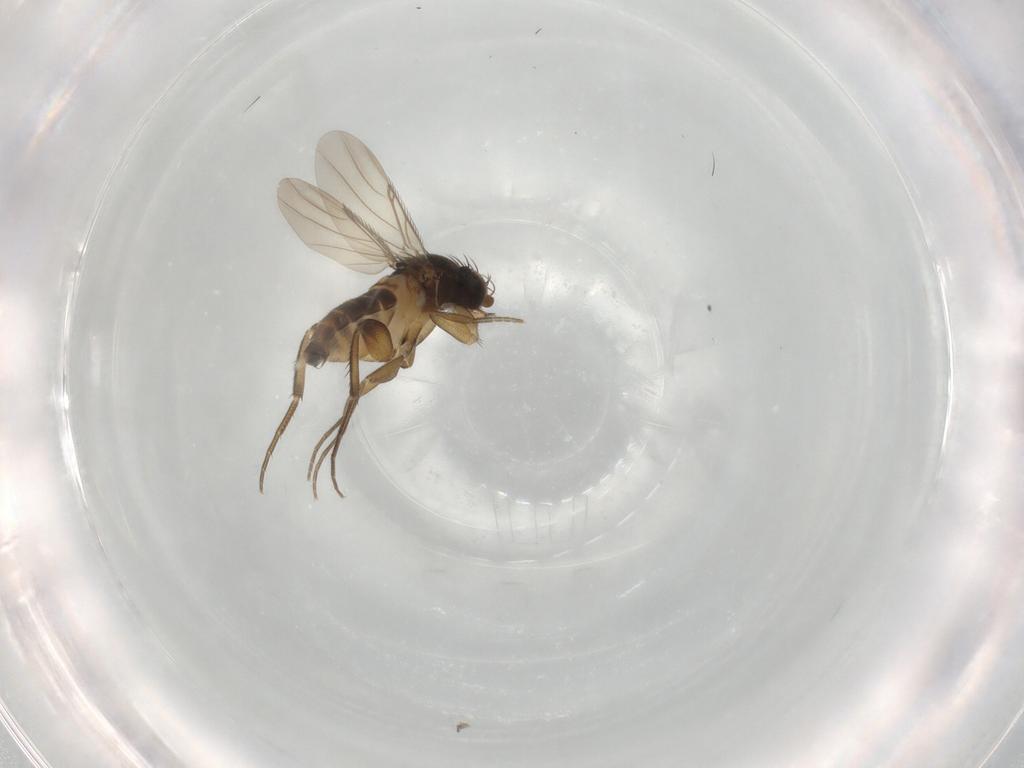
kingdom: Animalia
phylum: Arthropoda
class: Insecta
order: Diptera
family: Phoridae
